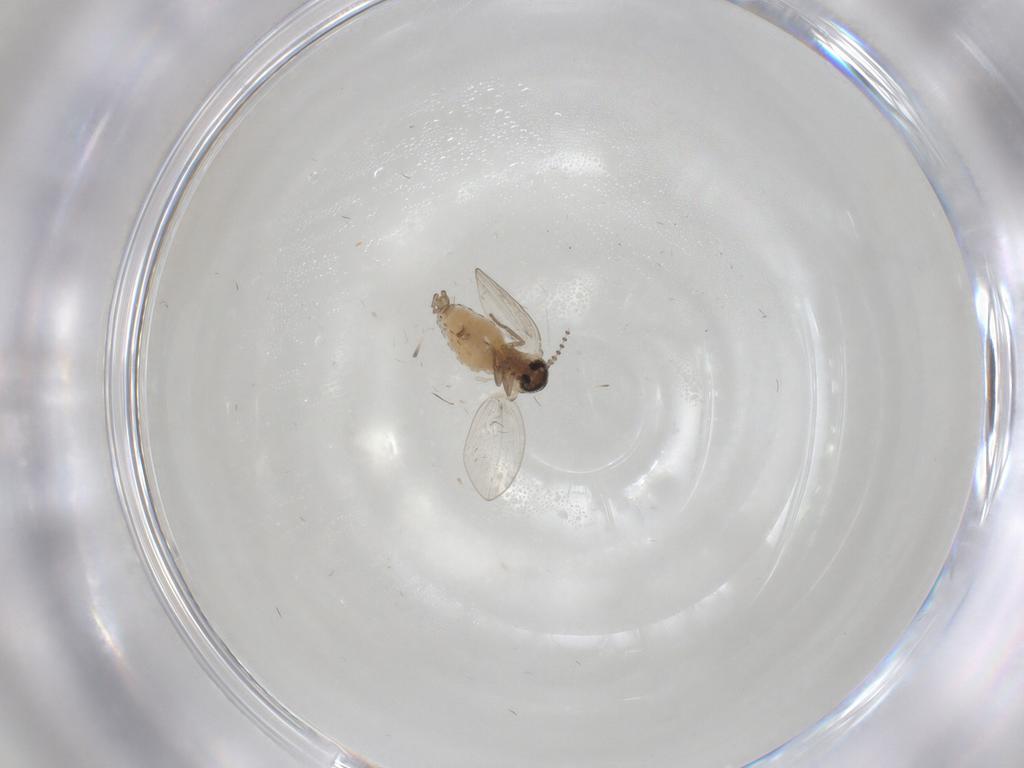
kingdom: Animalia
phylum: Arthropoda
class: Insecta
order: Diptera
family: Psychodidae
